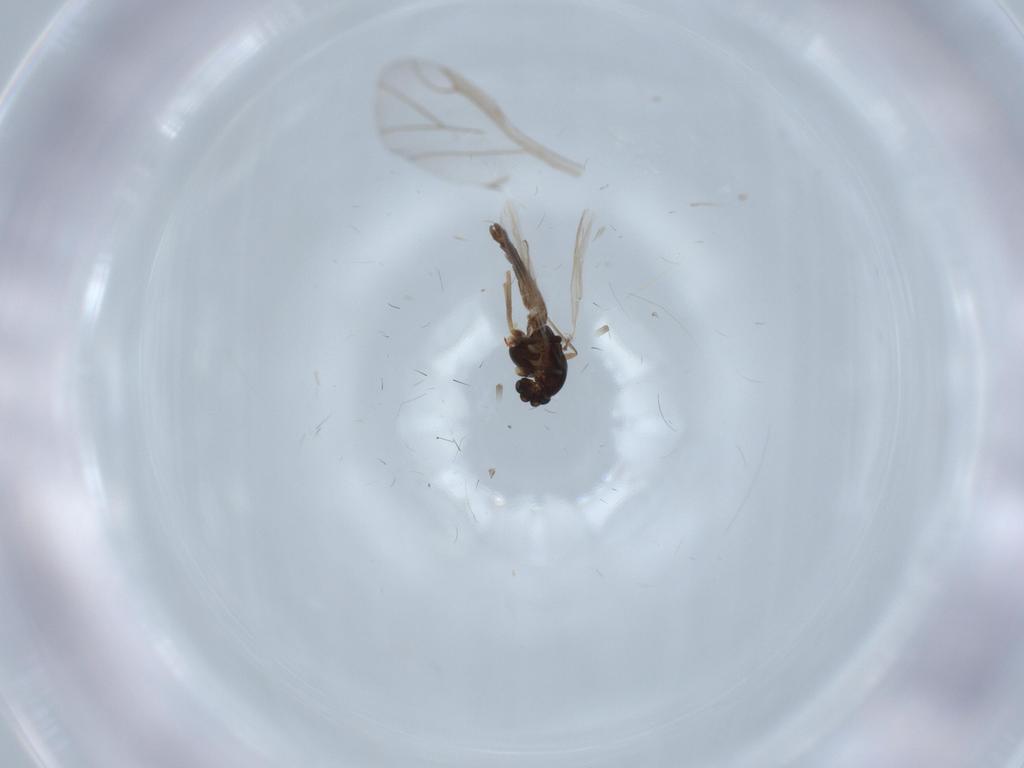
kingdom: Animalia
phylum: Arthropoda
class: Insecta
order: Diptera
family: Chironomidae
